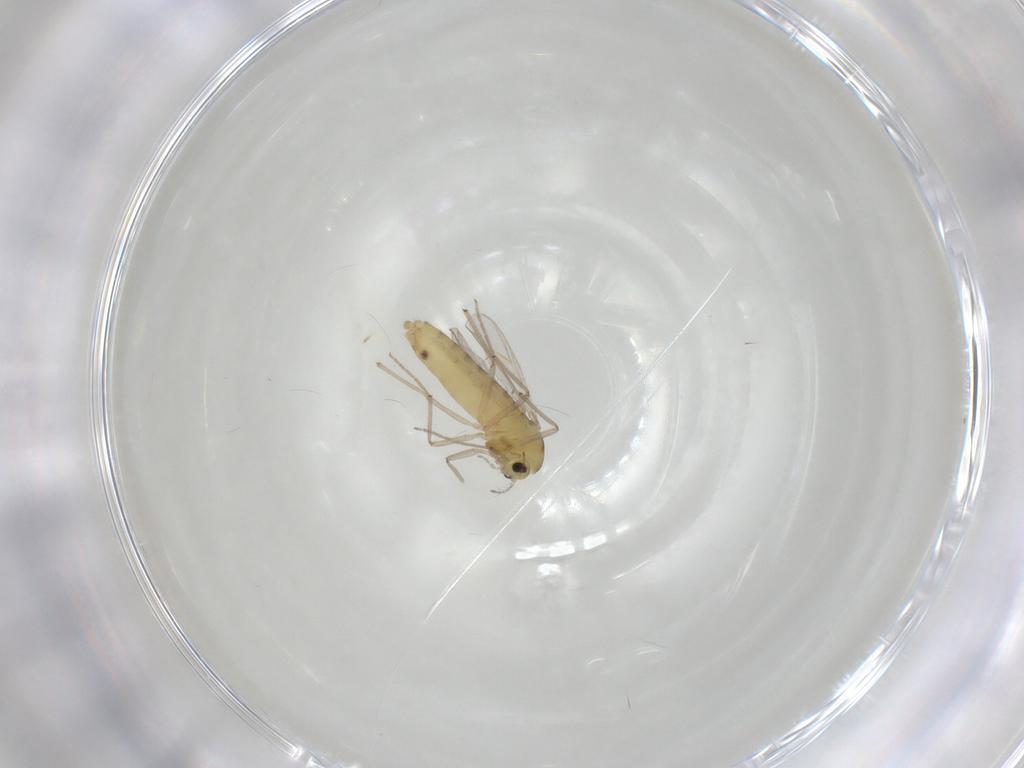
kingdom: Animalia
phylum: Arthropoda
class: Insecta
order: Diptera
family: Chironomidae
